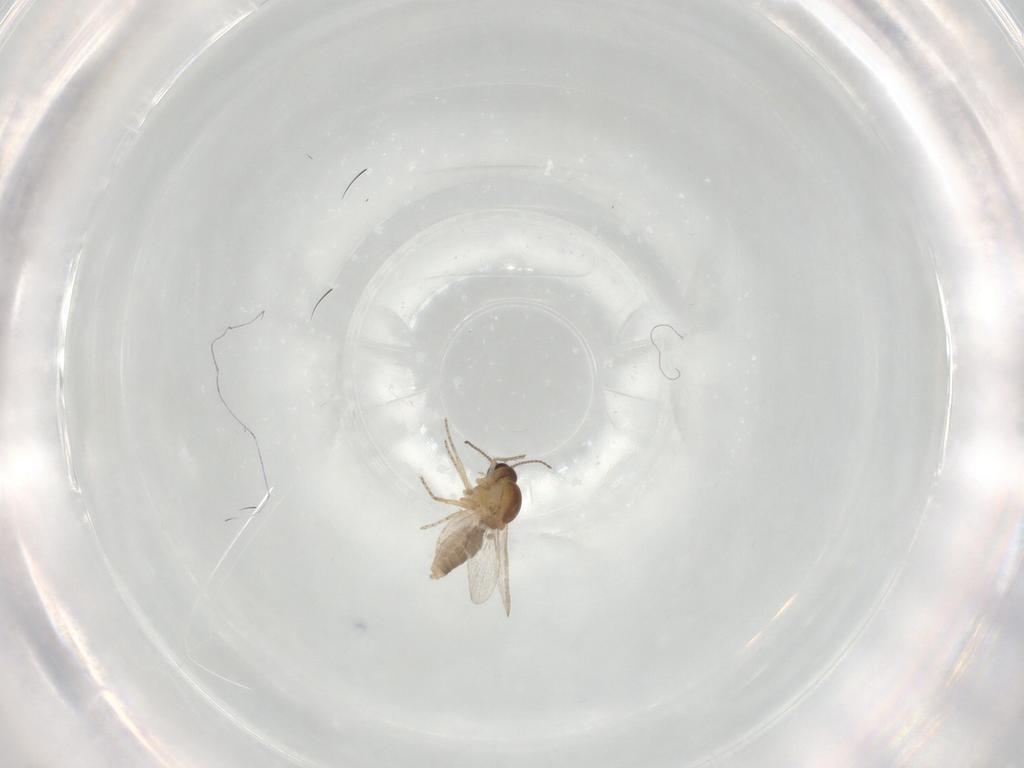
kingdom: Animalia
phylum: Arthropoda
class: Insecta
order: Diptera
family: Ceratopogonidae
